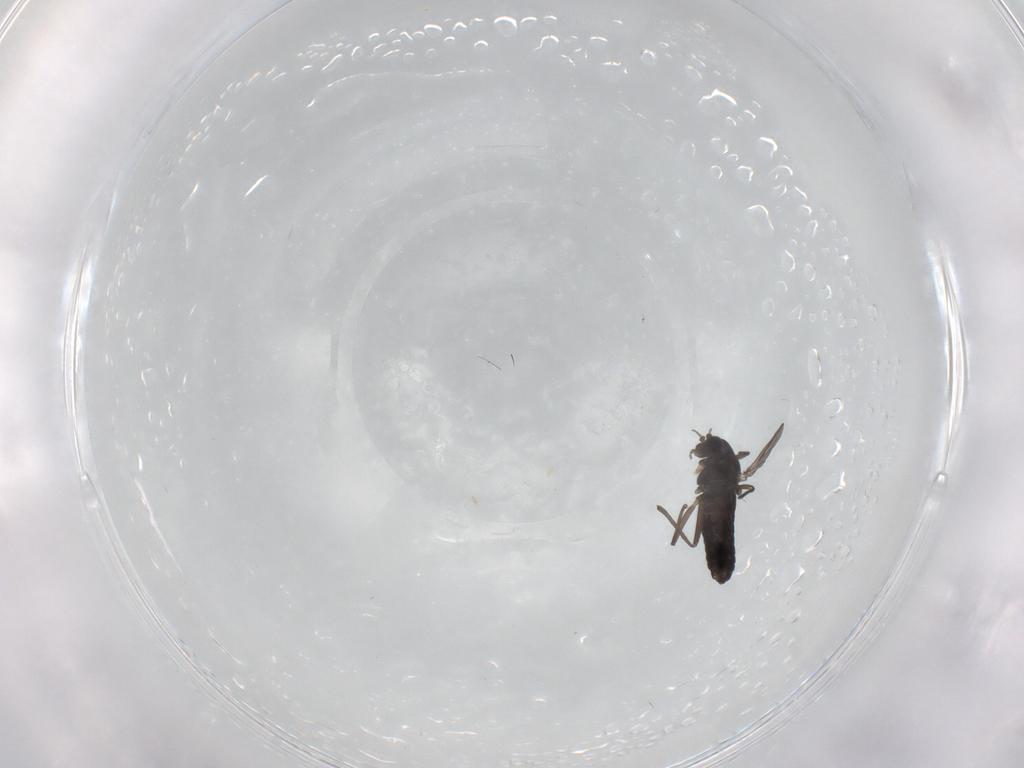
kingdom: Animalia
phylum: Arthropoda
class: Insecta
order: Diptera
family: Chironomidae
